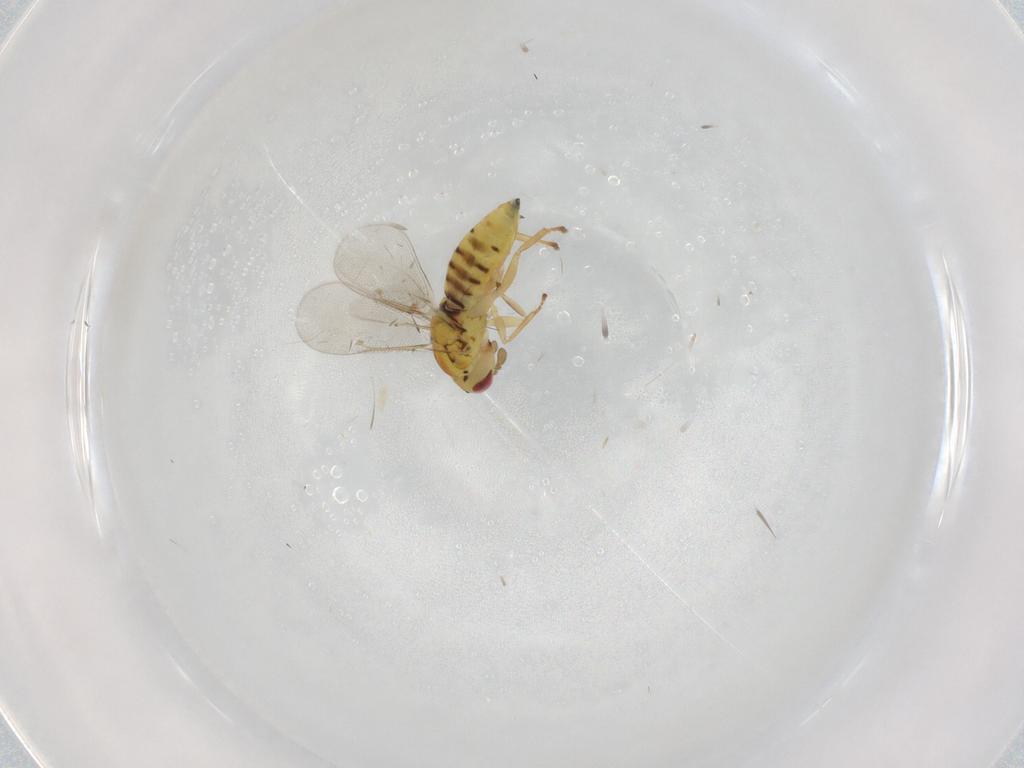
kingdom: Animalia
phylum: Arthropoda
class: Insecta
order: Hymenoptera
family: Eulophidae
